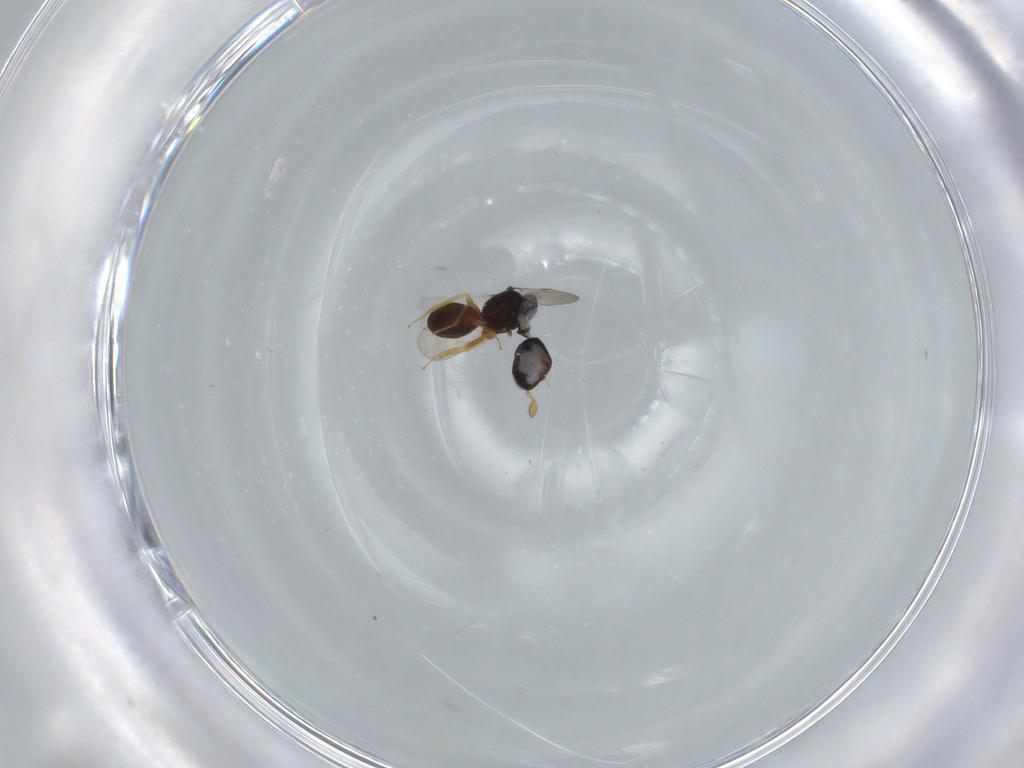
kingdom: Animalia
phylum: Arthropoda
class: Insecta
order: Hymenoptera
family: Scelionidae
